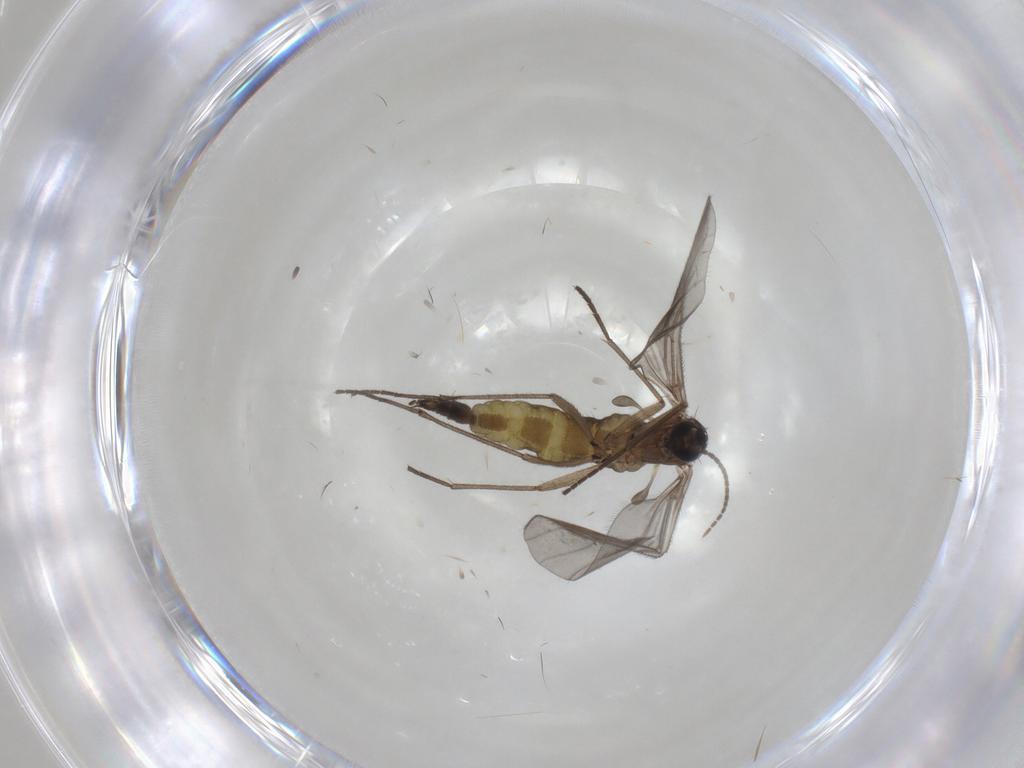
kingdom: Animalia
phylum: Arthropoda
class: Insecta
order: Diptera
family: Sciaridae
